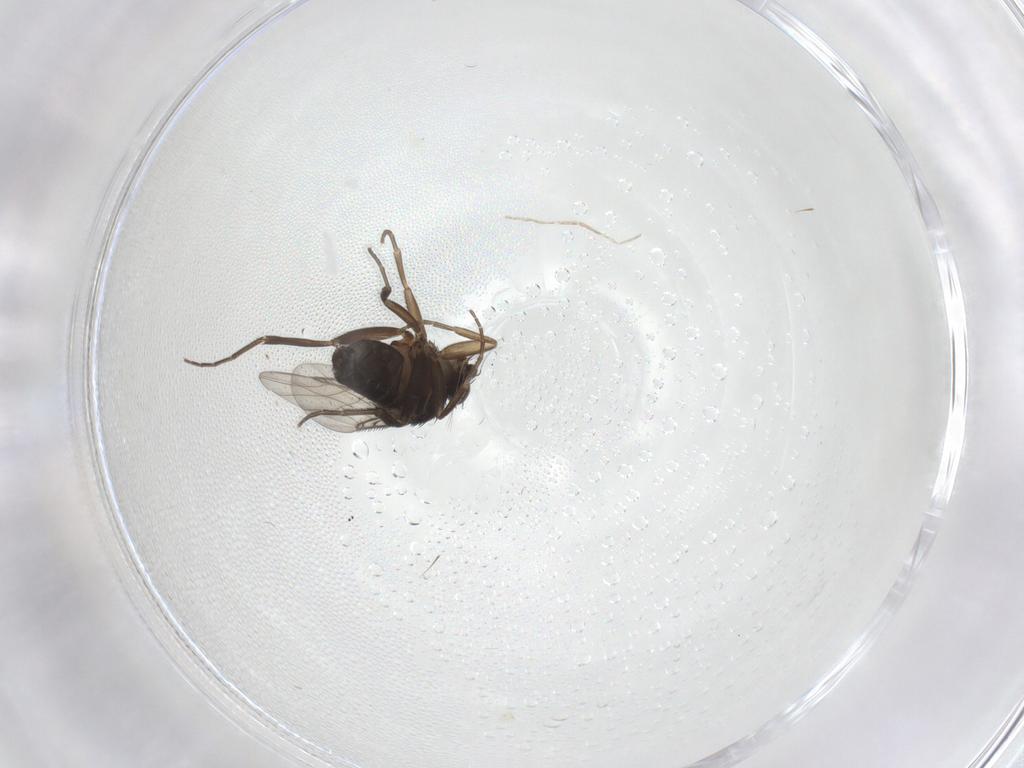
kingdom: Animalia
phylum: Arthropoda
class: Insecta
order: Diptera
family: Phoridae
